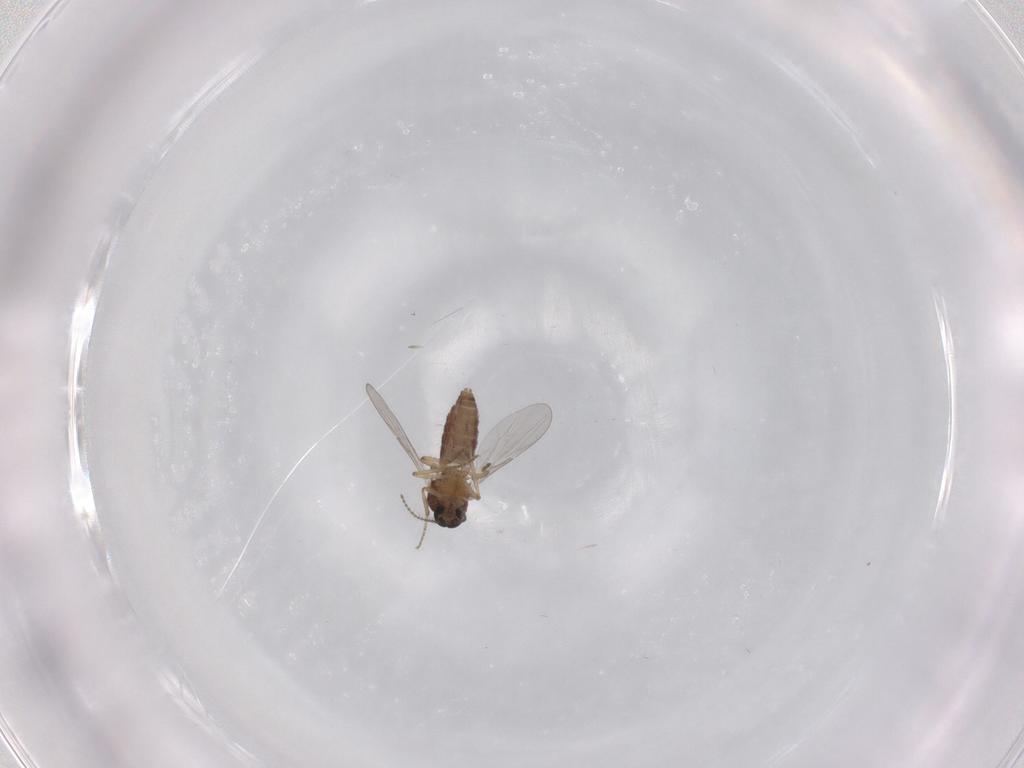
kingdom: Animalia
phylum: Arthropoda
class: Insecta
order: Diptera
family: Ceratopogonidae
